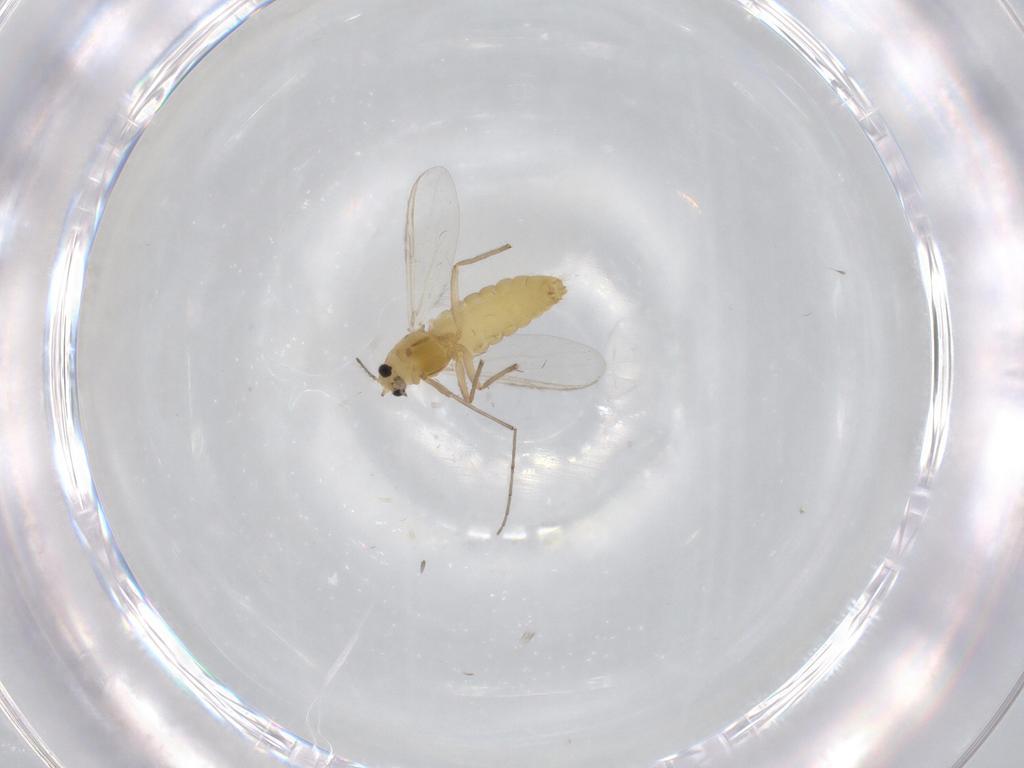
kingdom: Animalia
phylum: Arthropoda
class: Insecta
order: Diptera
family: Chironomidae
